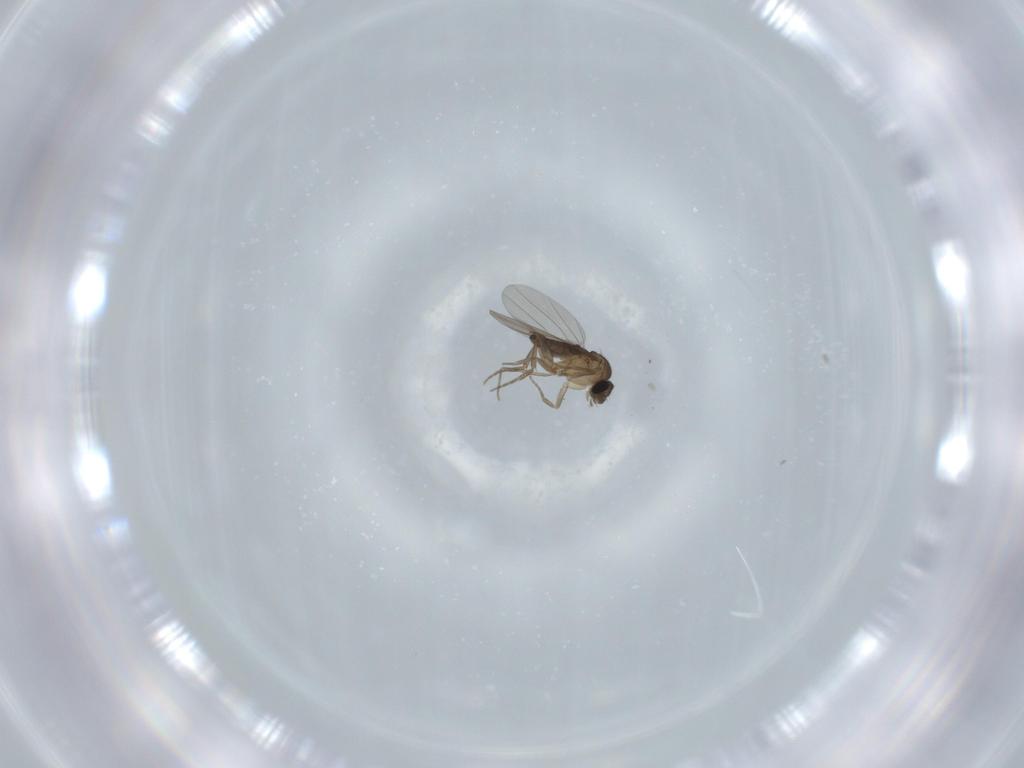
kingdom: Animalia
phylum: Arthropoda
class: Insecta
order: Diptera
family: Phoridae
